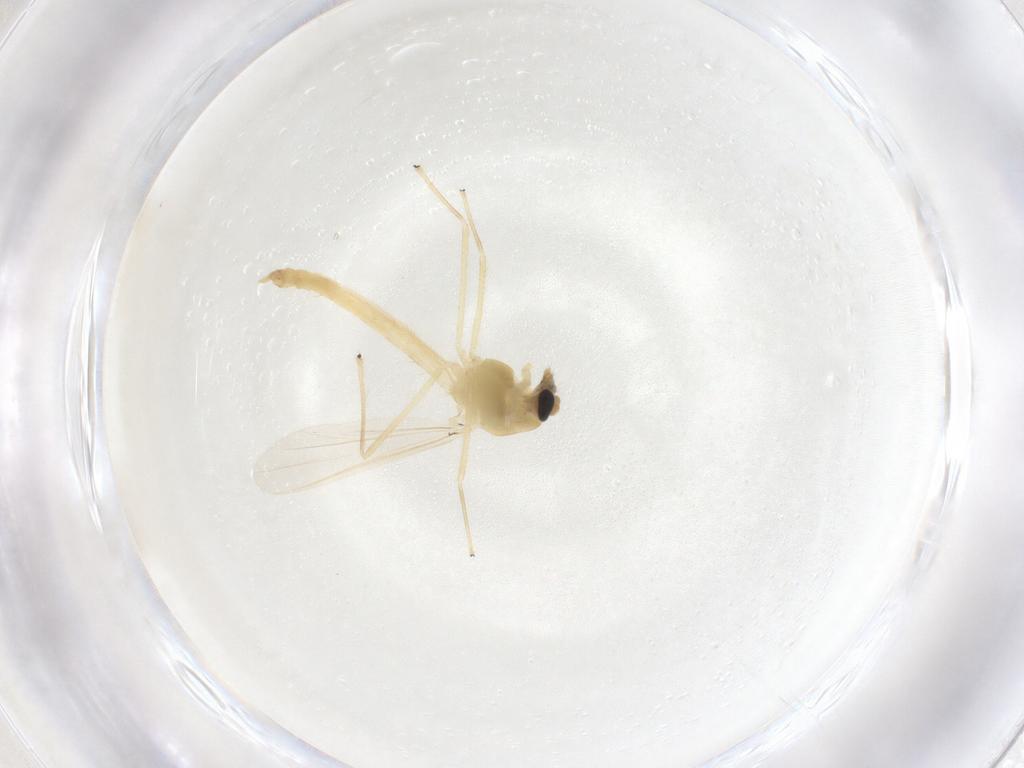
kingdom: Animalia
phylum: Arthropoda
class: Insecta
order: Diptera
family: Chironomidae
